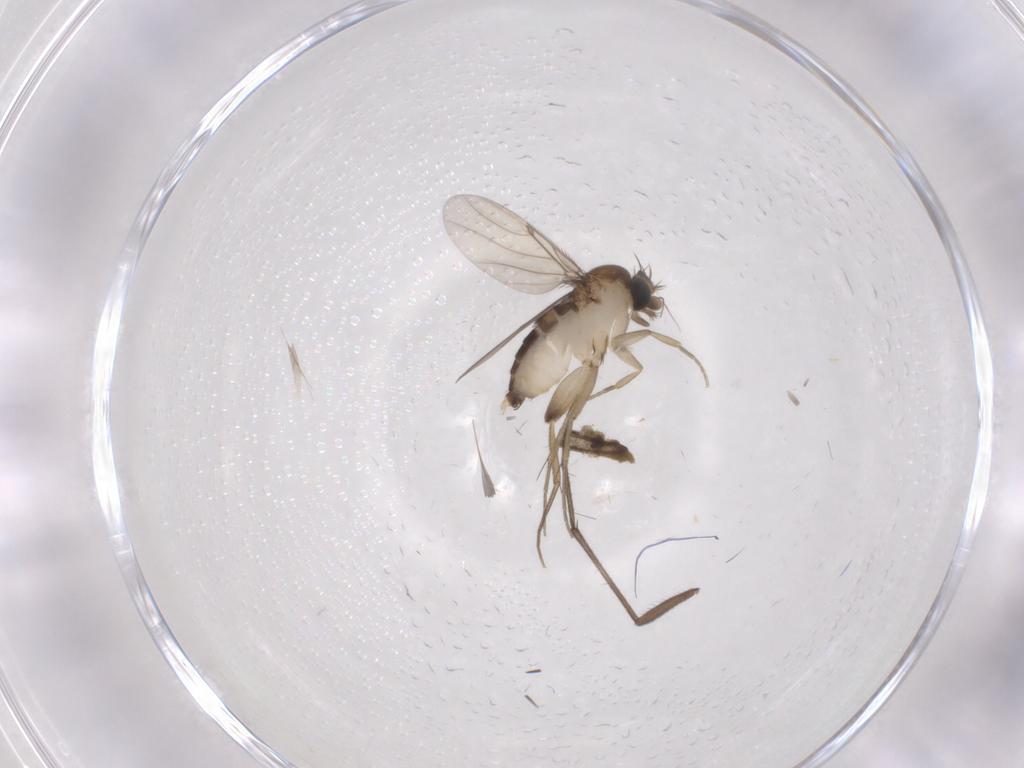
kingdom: Animalia
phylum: Arthropoda
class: Insecta
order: Diptera
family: Phoridae
